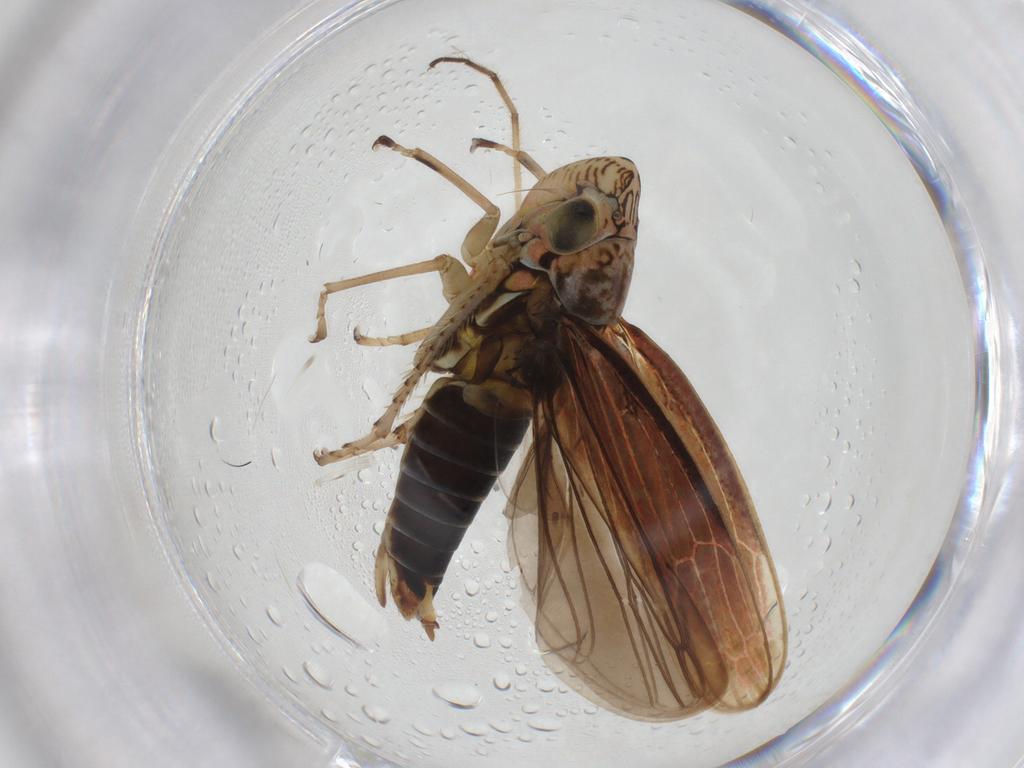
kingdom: Animalia
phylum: Arthropoda
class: Insecta
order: Hemiptera
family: Cicadellidae
